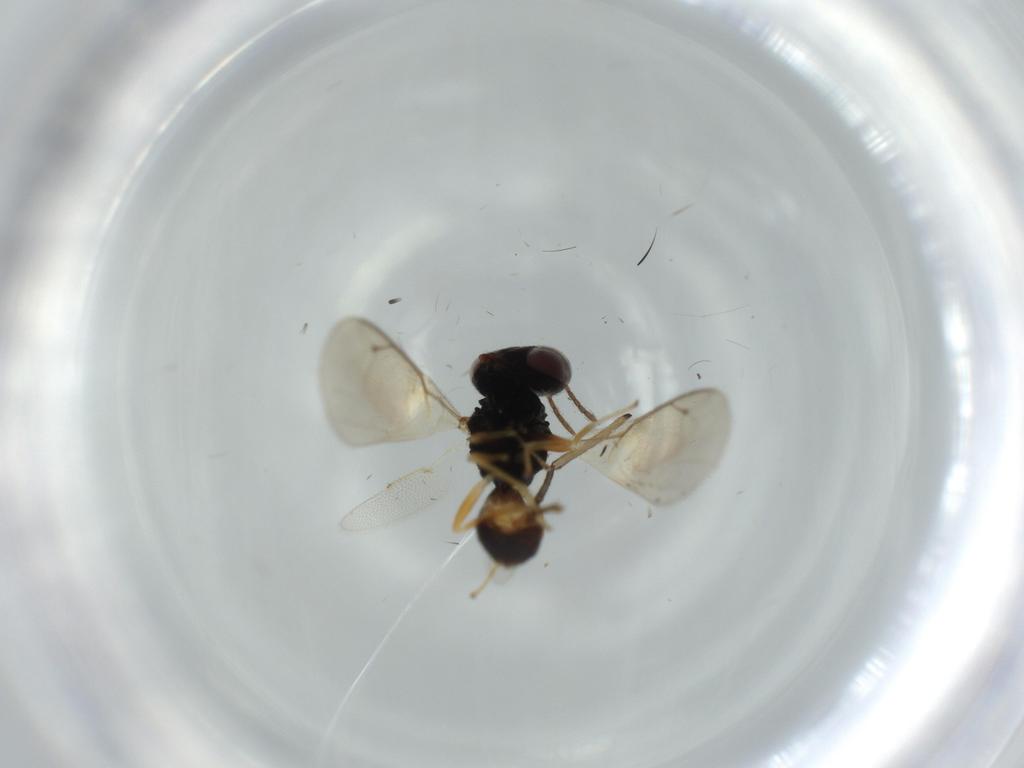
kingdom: Animalia
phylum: Arthropoda
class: Insecta
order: Hymenoptera
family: Pteromalidae
